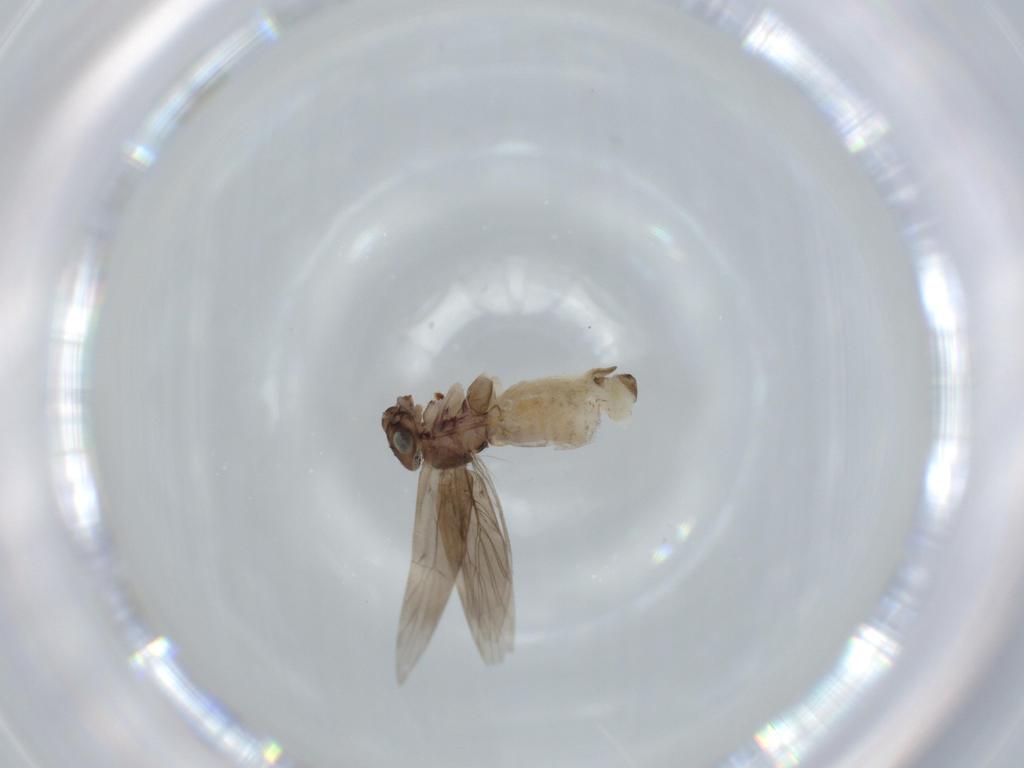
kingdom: Animalia
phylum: Arthropoda
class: Insecta
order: Psocodea
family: Lepidopsocidae
